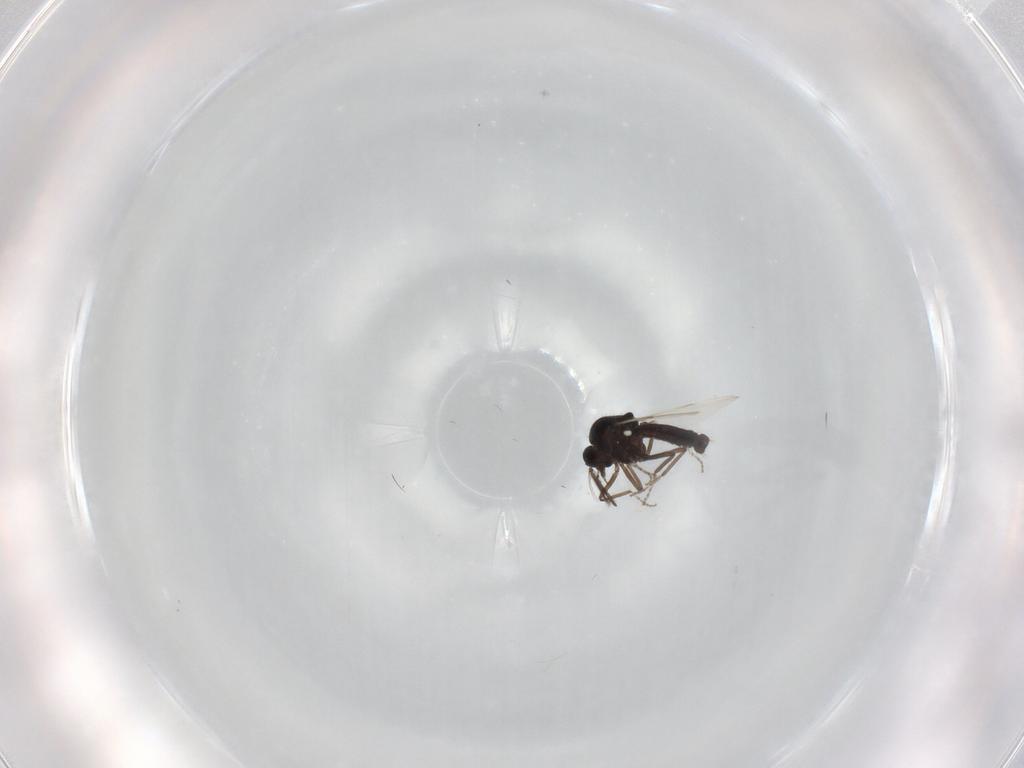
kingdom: Animalia
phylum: Arthropoda
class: Insecta
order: Diptera
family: Ceratopogonidae
